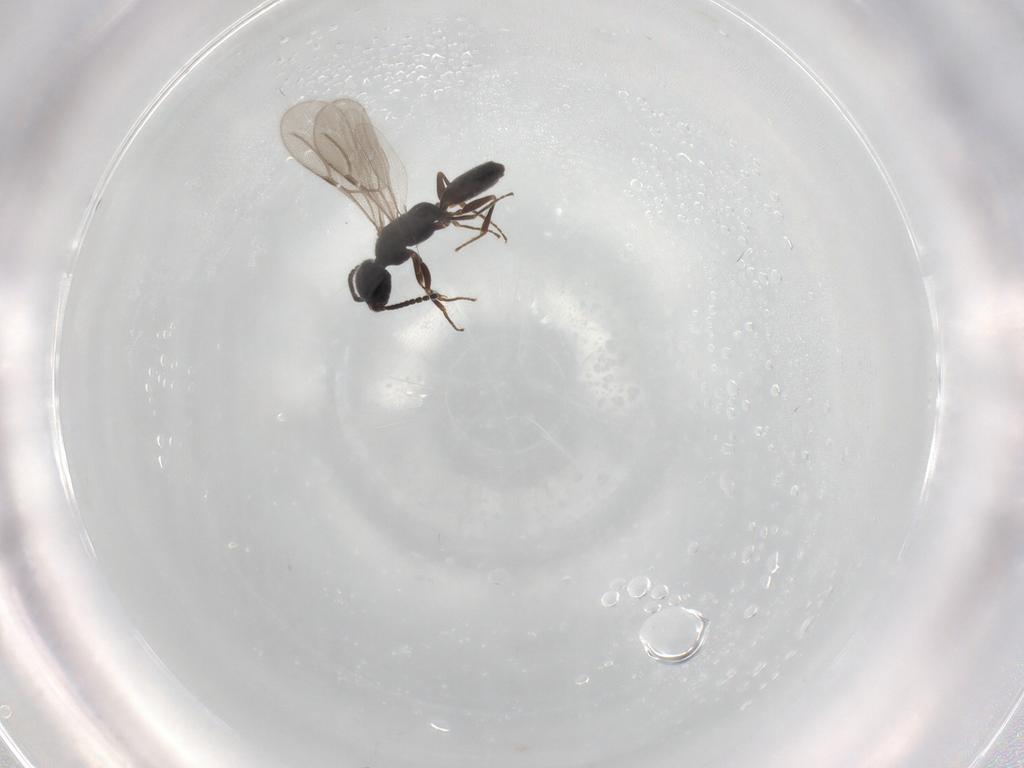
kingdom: Animalia
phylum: Arthropoda
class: Insecta
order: Hymenoptera
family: Bethylidae
